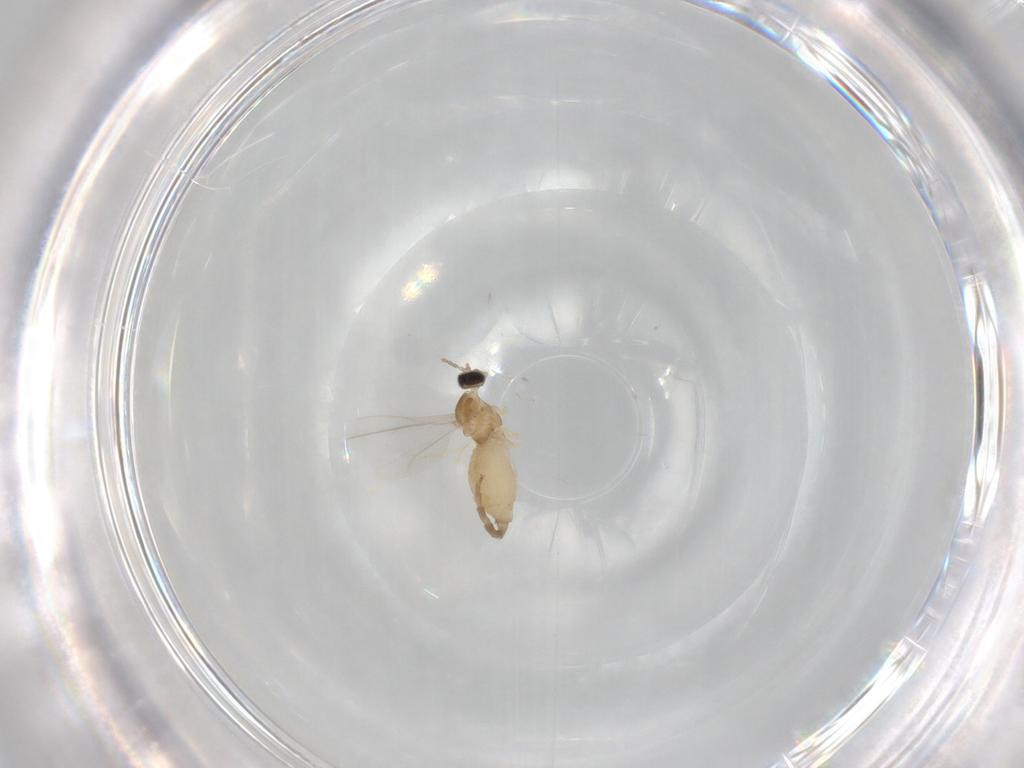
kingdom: Animalia
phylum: Arthropoda
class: Insecta
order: Diptera
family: Cecidomyiidae
